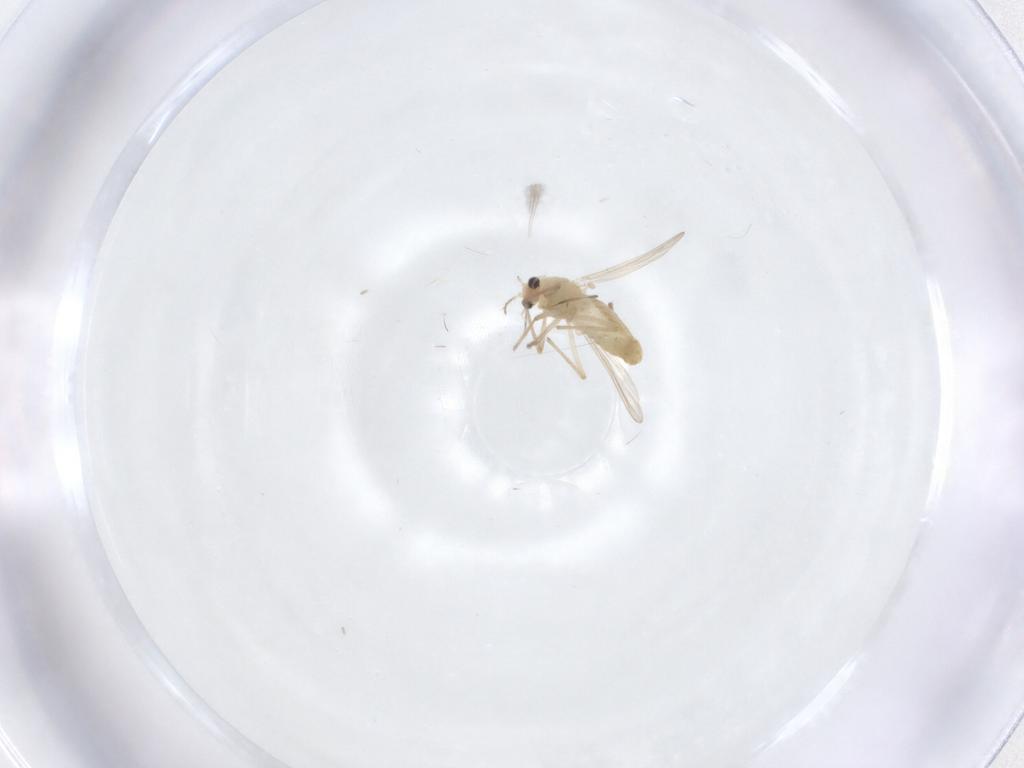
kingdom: Animalia
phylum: Arthropoda
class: Insecta
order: Diptera
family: Chironomidae
